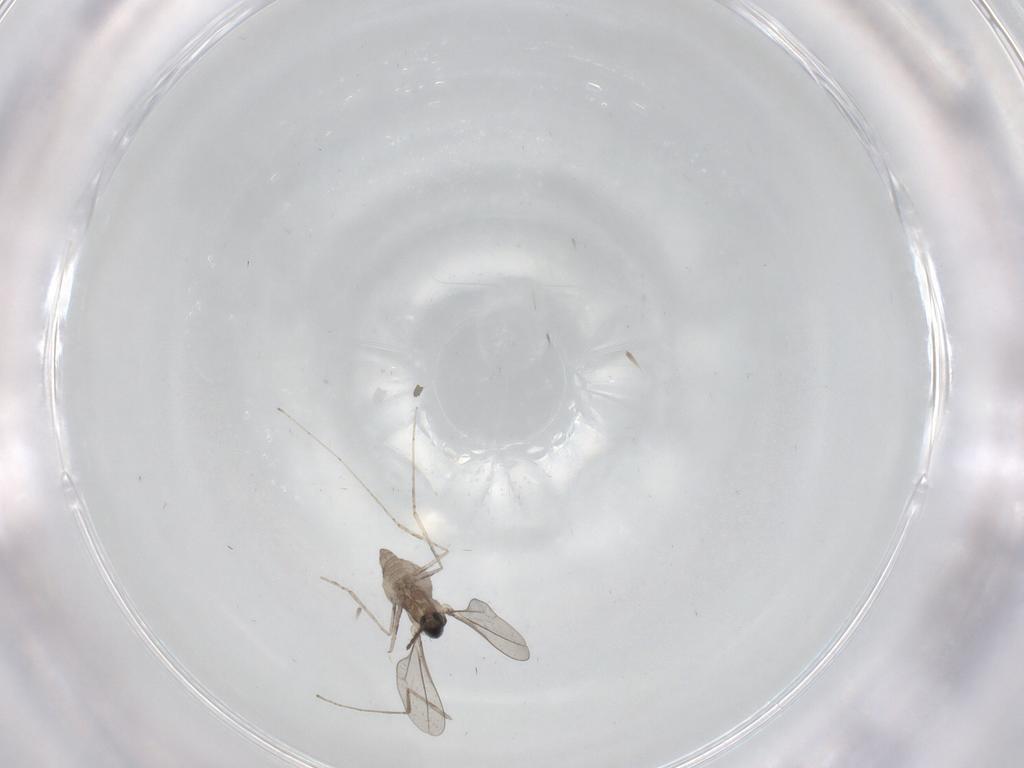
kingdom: Animalia
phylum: Arthropoda
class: Insecta
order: Diptera
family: Cecidomyiidae
